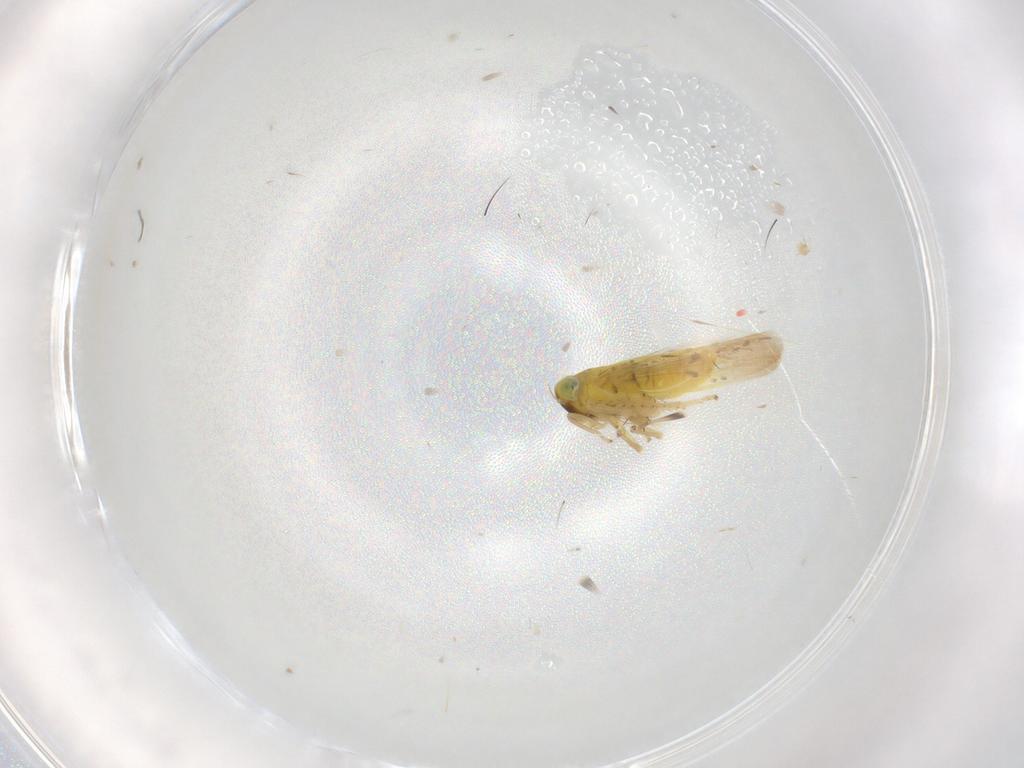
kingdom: Animalia
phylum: Arthropoda
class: Insecta
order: Hemiptera
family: Cicadellidae
